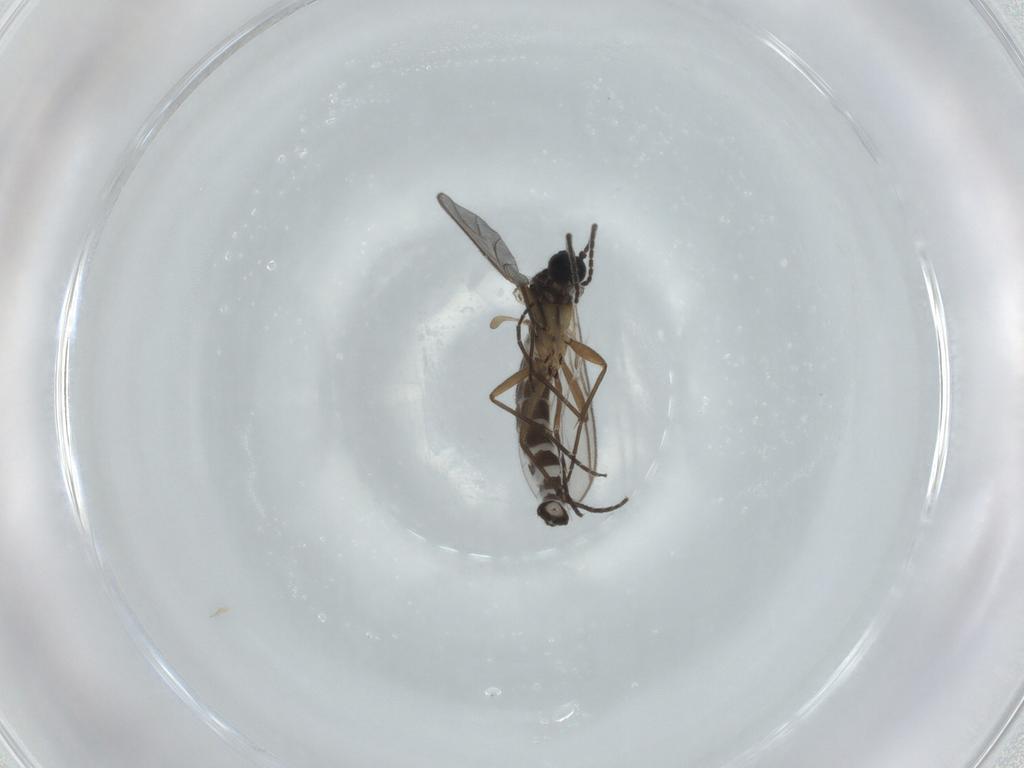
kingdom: Animalia
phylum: Arthropoda
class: Insecta
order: Diptera
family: Sciaridae
